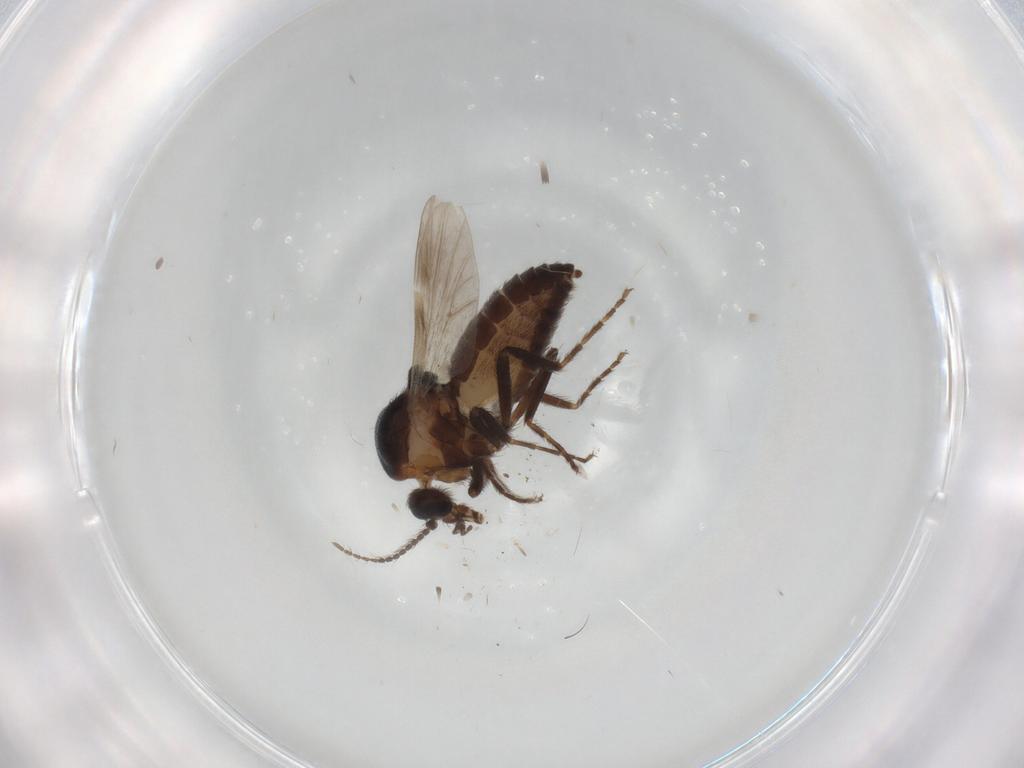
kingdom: Animalia
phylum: Arthropoda
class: Insecta
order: Diptera
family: Ceratopogonidae
